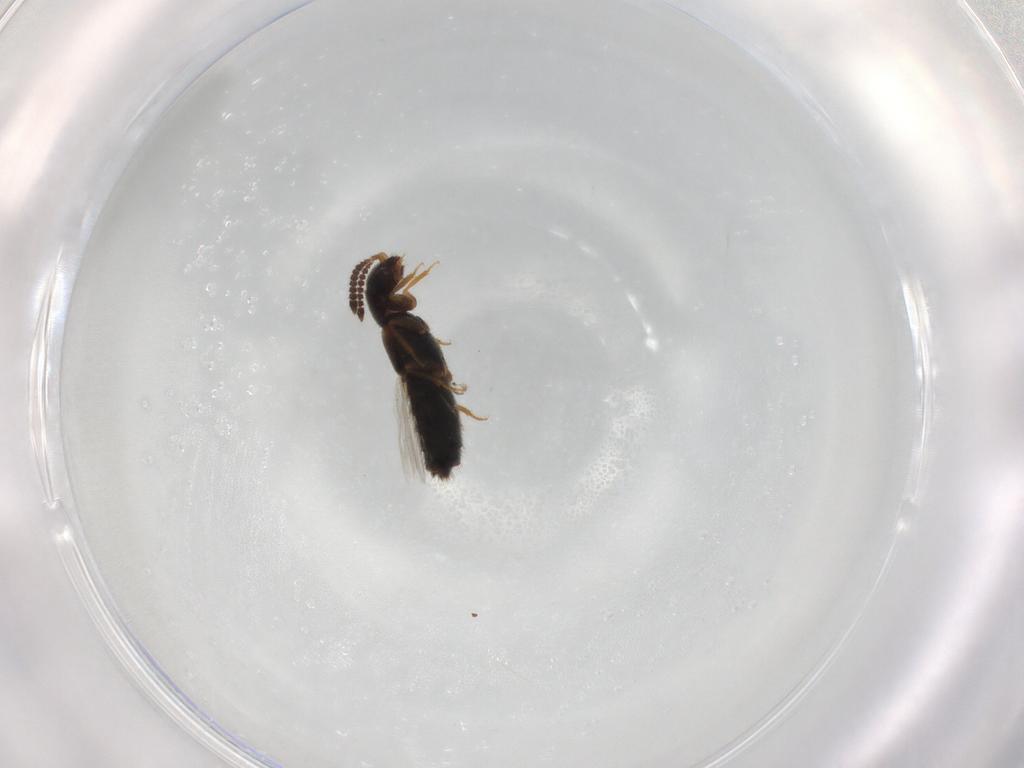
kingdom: Animalia
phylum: Arthropoda
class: Insecta
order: Coleoptera
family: Staphylinidae
